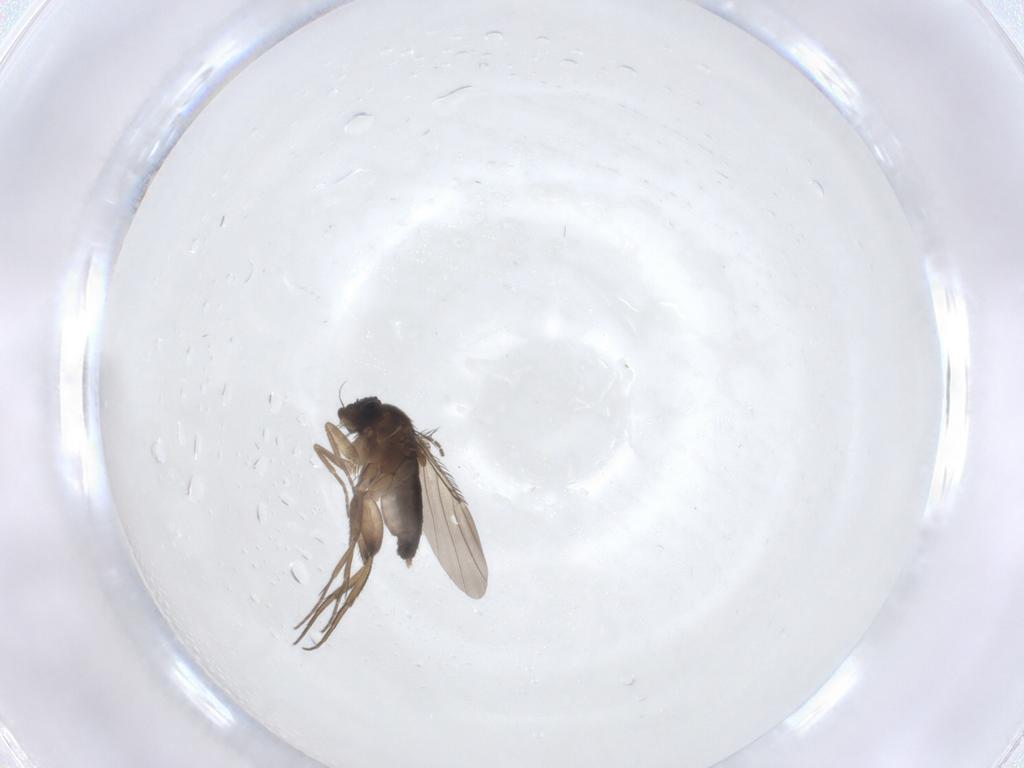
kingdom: Animalia
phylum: Arthropoda
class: Insecta
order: Diptera
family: Phoridae
